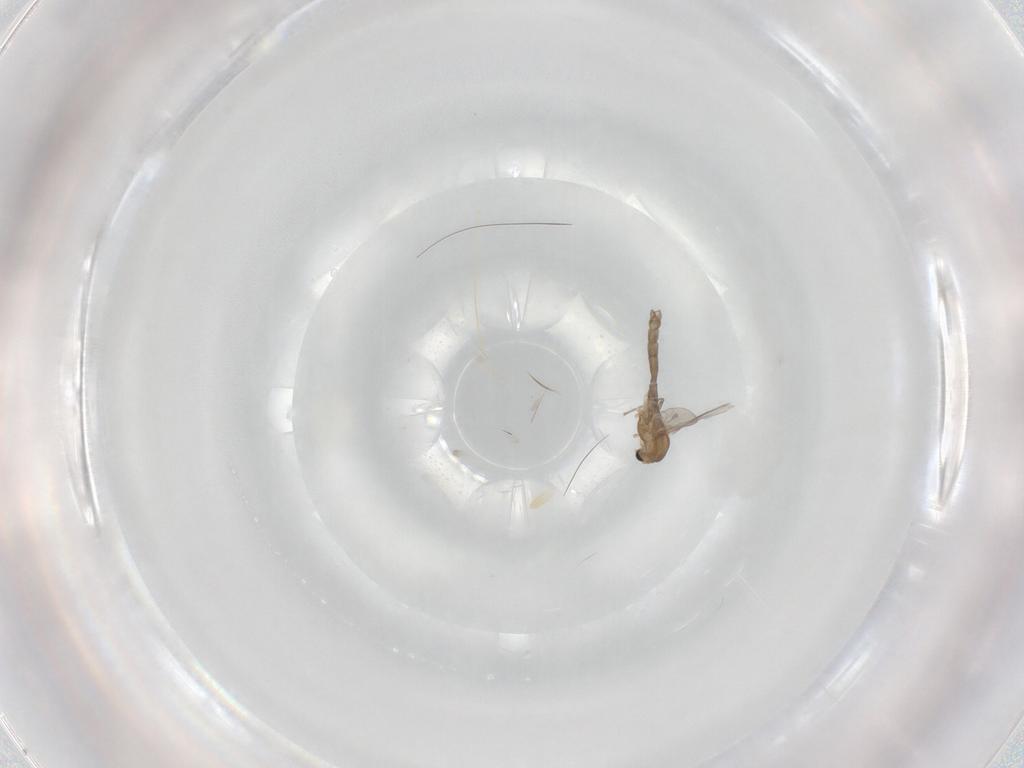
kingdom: Animalia
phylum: Arthropoda
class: Insecta
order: Diptera
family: Chironomidae
